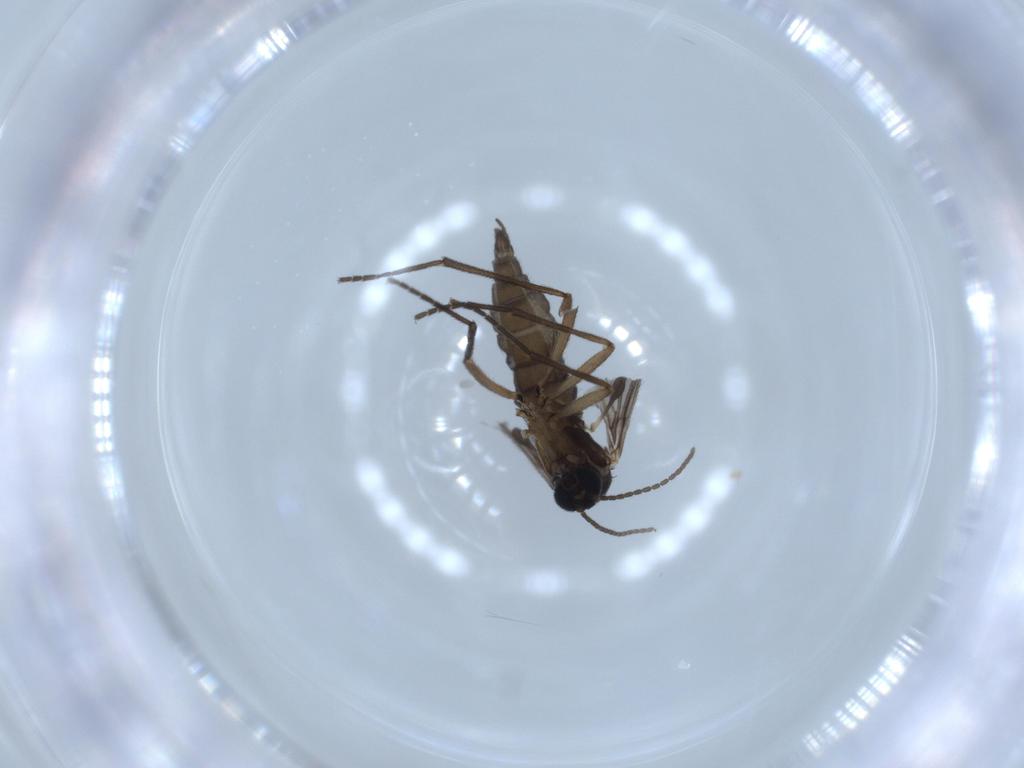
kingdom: Animalia
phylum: Arthropoda
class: Insecta
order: Diptera
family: Sciaridae
